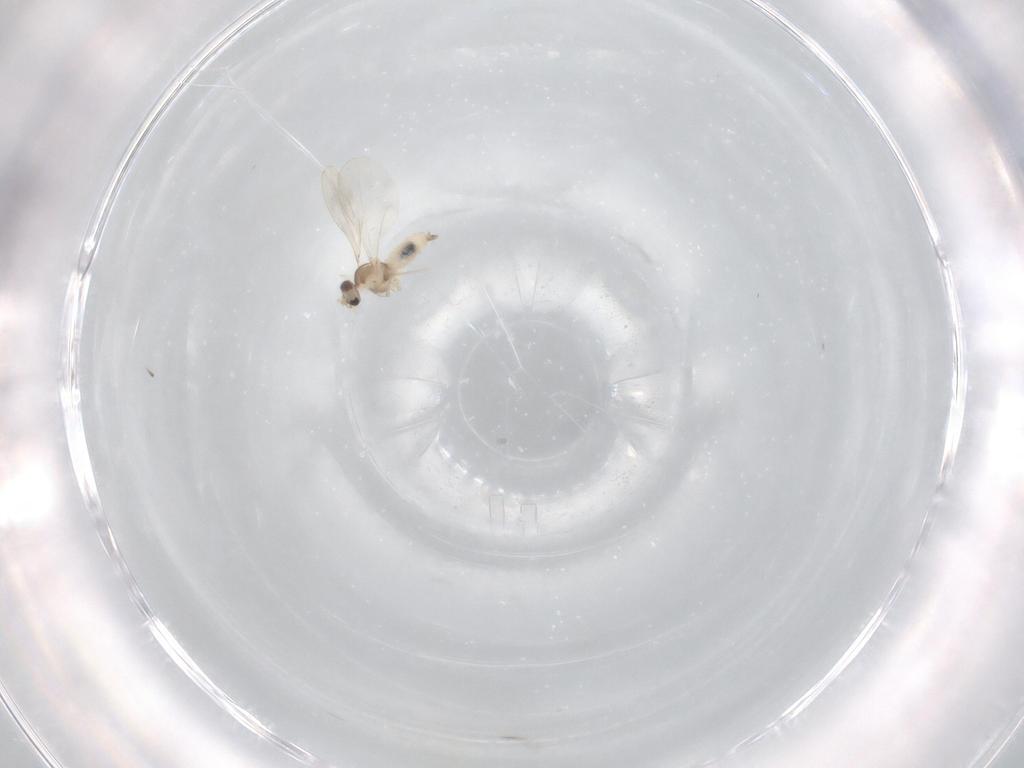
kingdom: Animalia
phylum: Arthropoda
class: Insecta
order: Diptera
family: Cecidomyiidae
